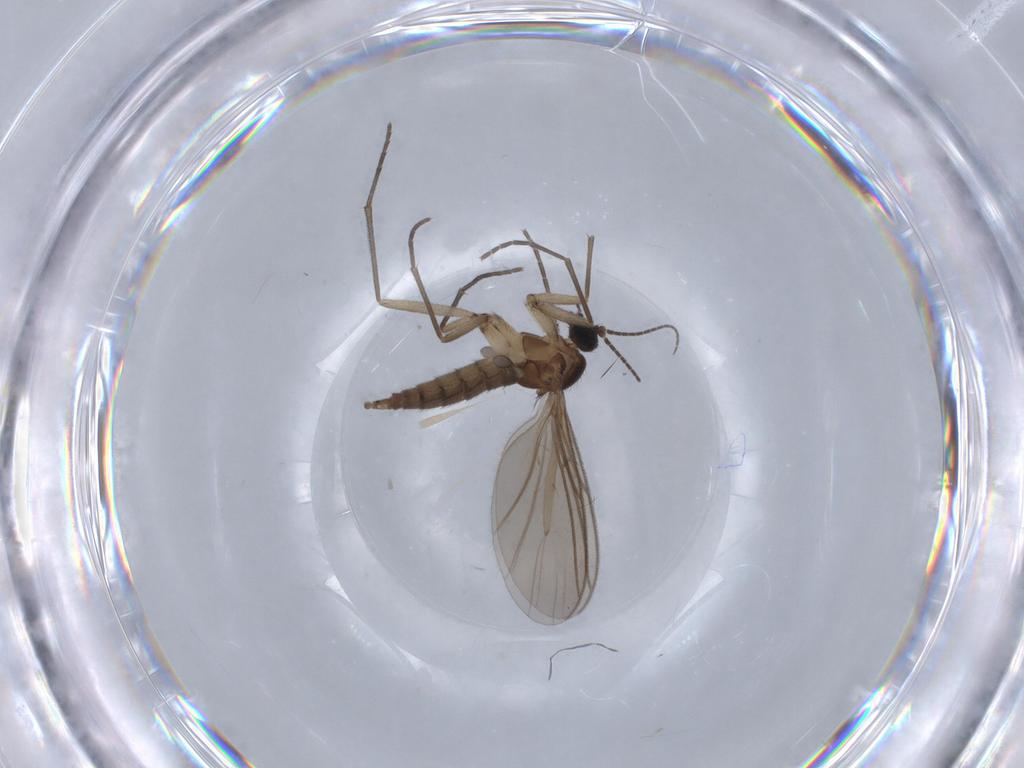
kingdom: Animalia
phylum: Arthropoda
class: Insecta
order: Diptera
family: Sciaridae
